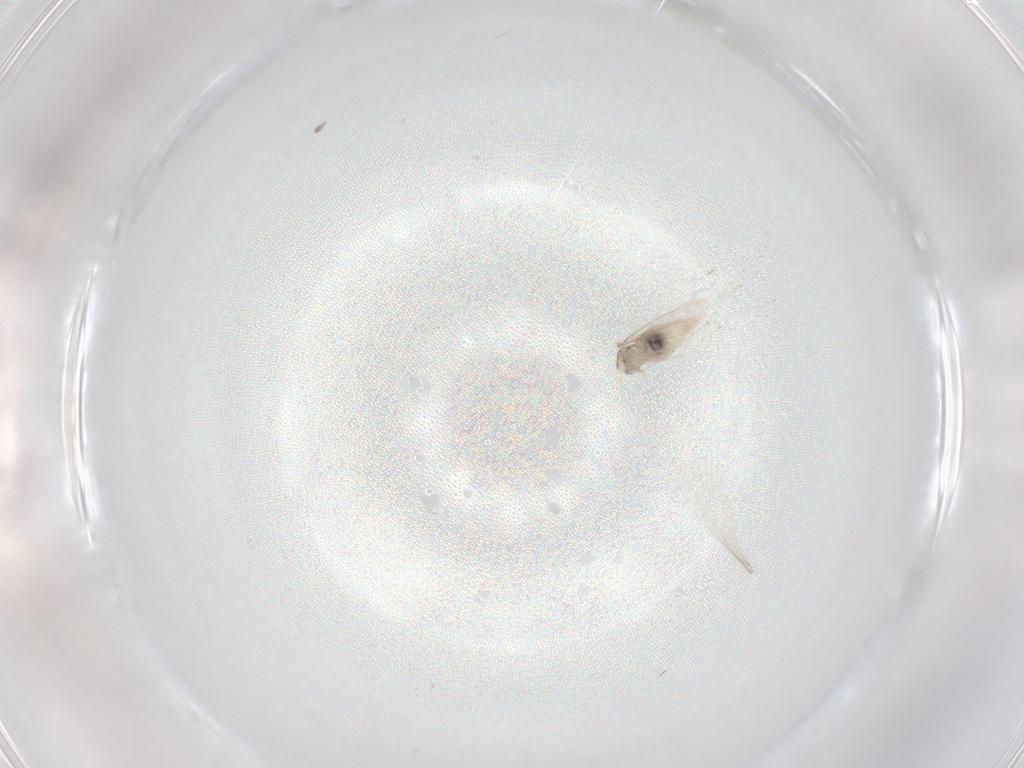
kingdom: Animalia
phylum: Arthropoda
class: Insecta
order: Diptera
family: Cecidomyiidae
